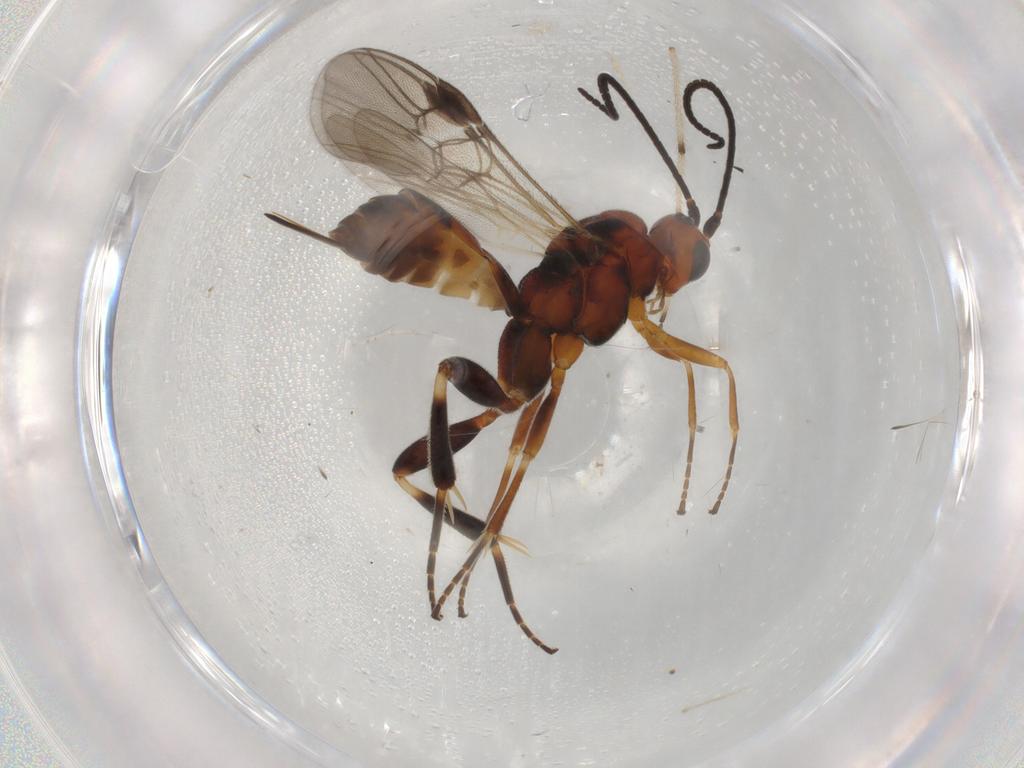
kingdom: Animalia
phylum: Arthropoda
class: Insecta
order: Hymenoptera
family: Braconidae
